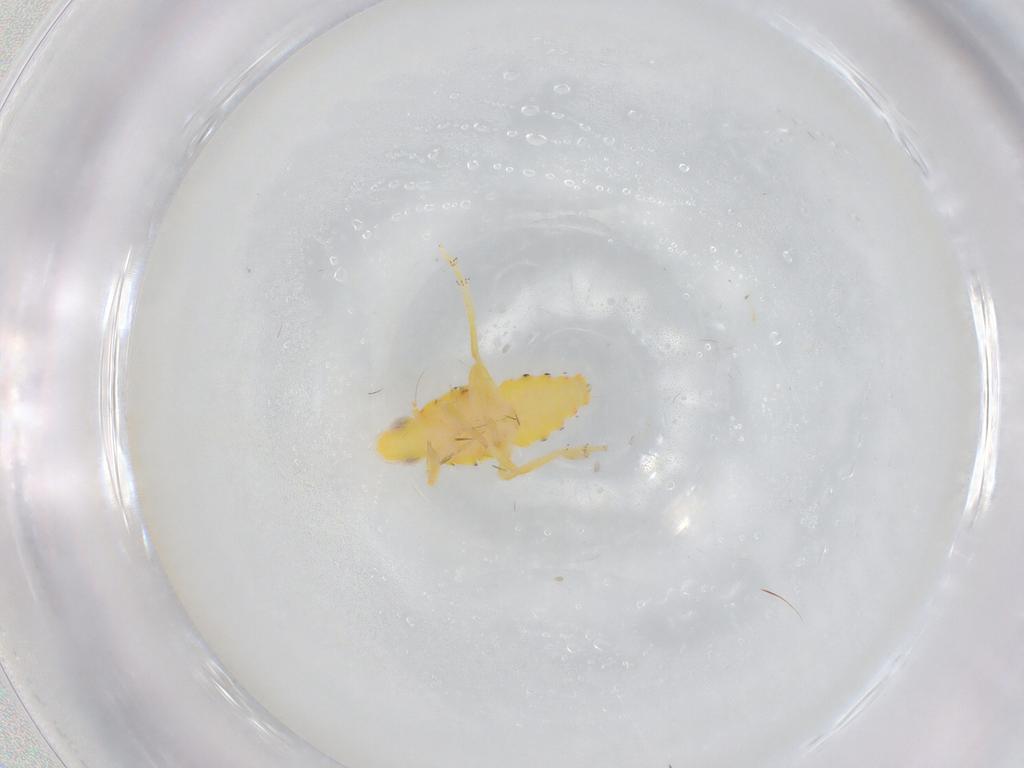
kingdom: Animalia
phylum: Arthropoda
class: Insecta
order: Hemiptera
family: Tropiduchidae
